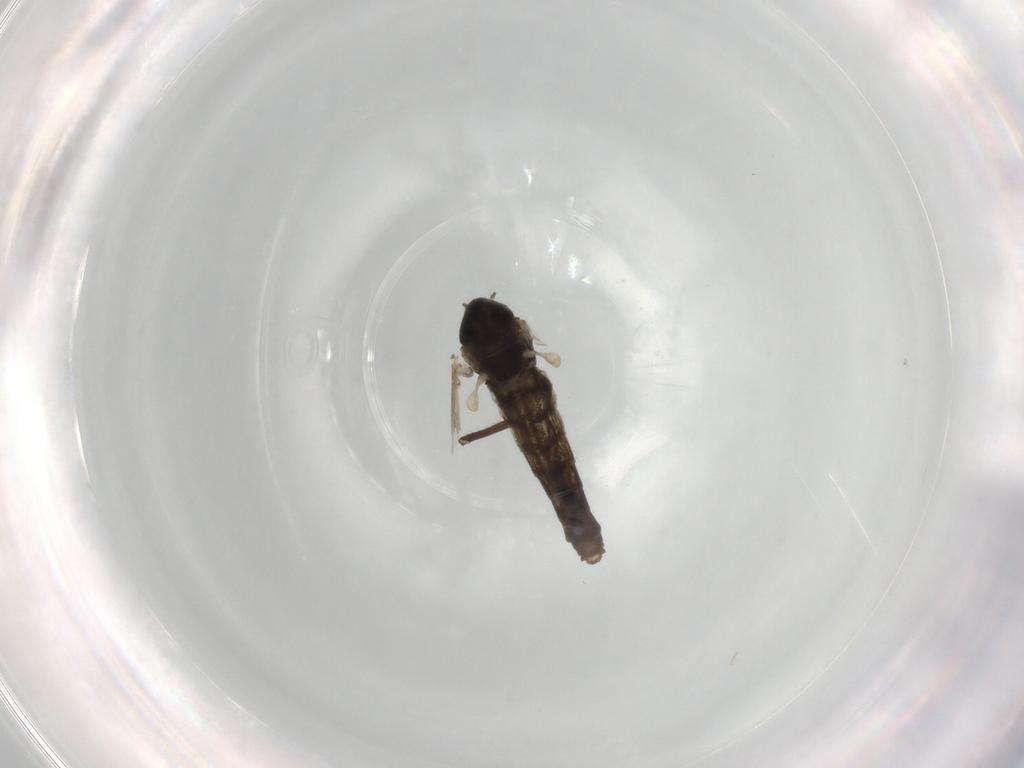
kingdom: Animalia
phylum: Arthropoda
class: Insecta
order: Diptera
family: Chironomidae
